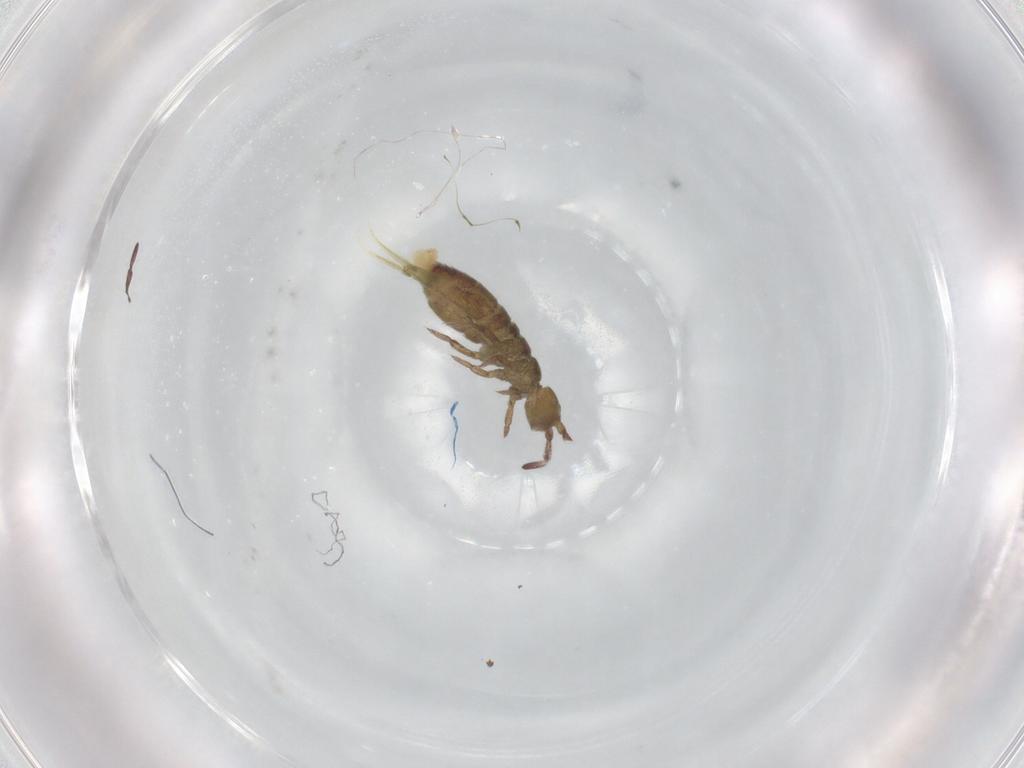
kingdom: Animalia
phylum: Arthropoda
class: Collembola
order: Entomobryomorpha
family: Isotomidae
